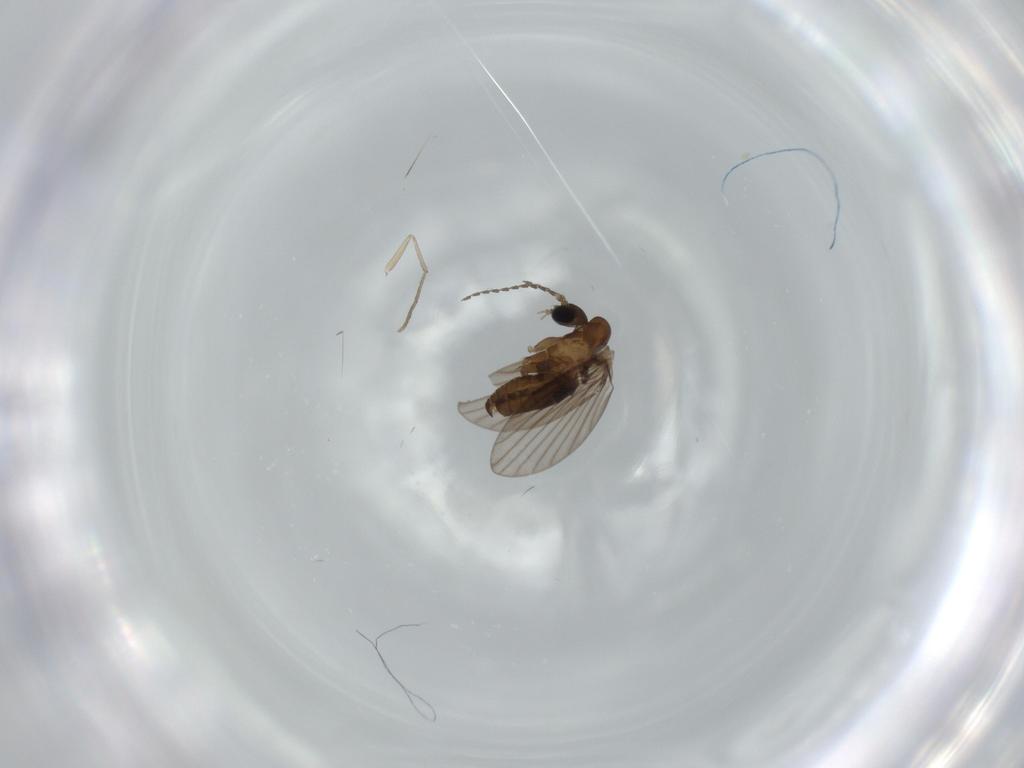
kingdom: Animalia
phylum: Arthropoda
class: Insecta
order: Diptera
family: Psychodidae
